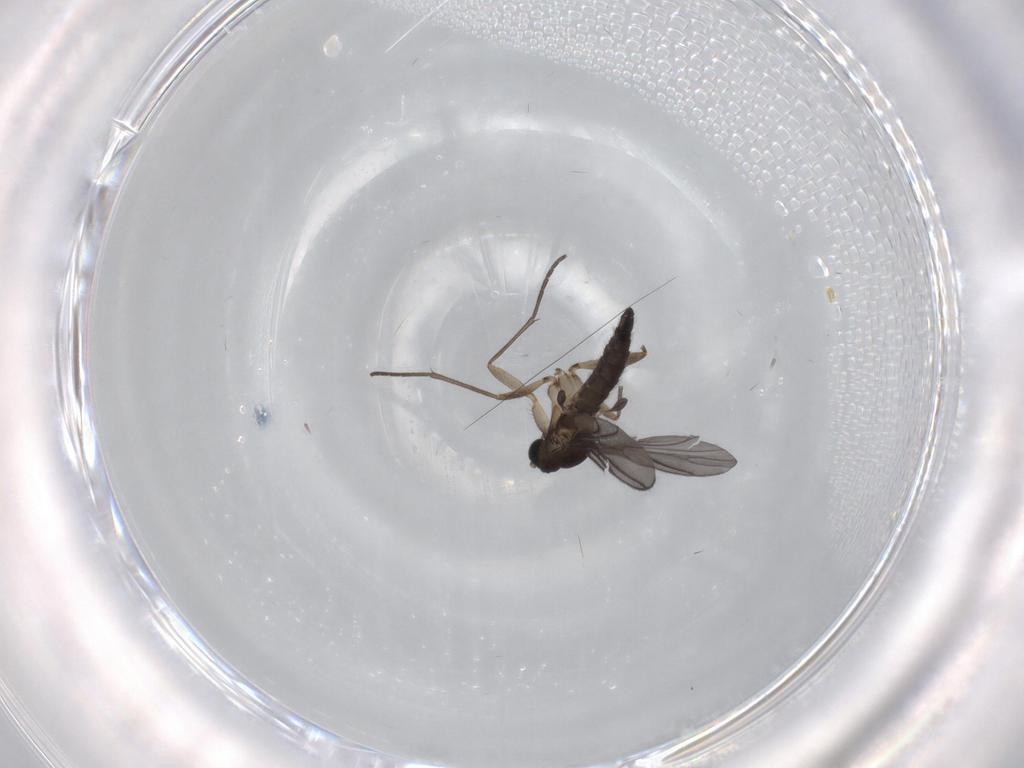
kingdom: Animalia
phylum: Arthropoda
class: Insecta
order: Diptera
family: Sciaridae
